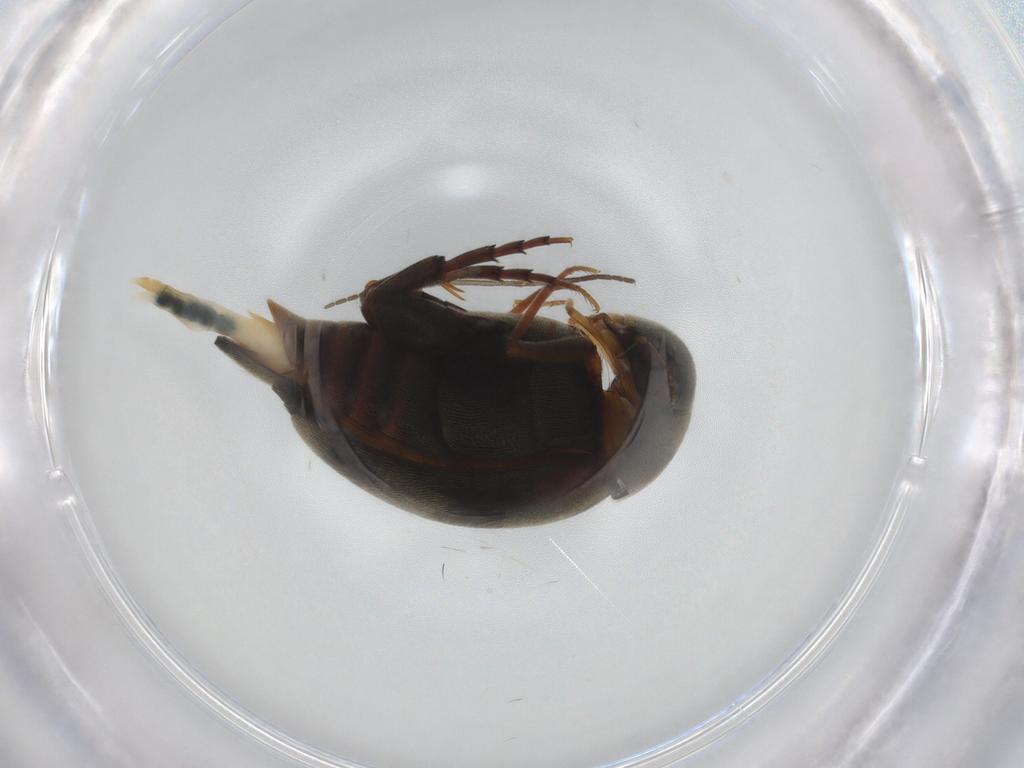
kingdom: Animalia
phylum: Arthropoda
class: Insecta
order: Coleoptera
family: Mordellidae
